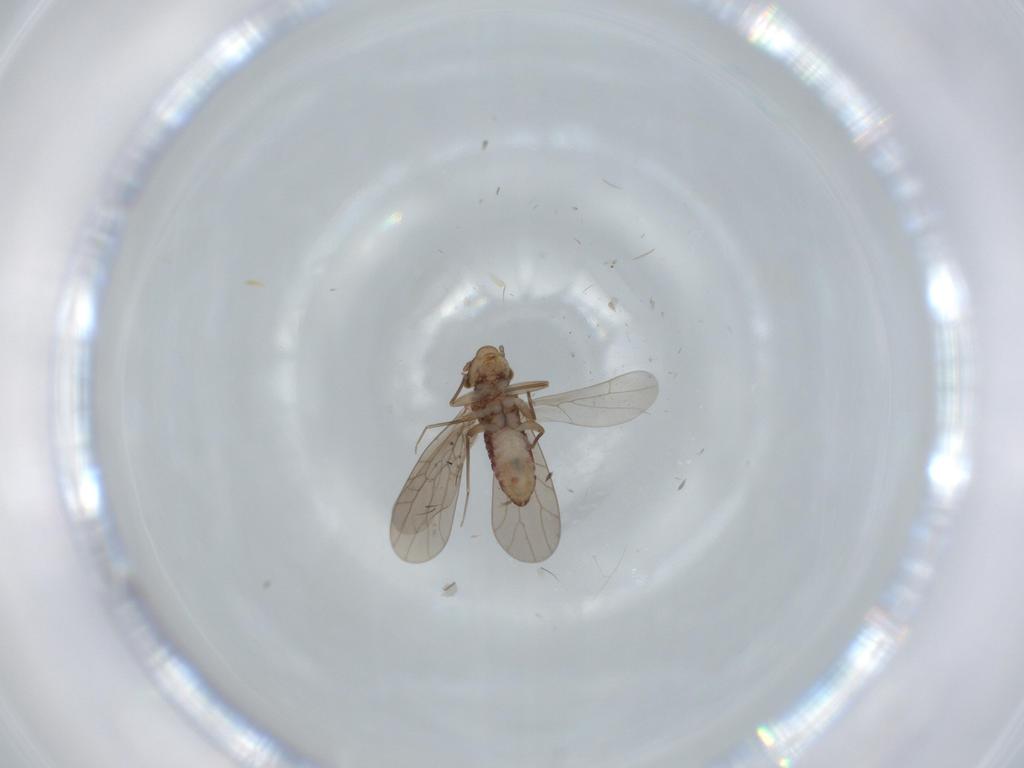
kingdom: Animalia
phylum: Arthropoda
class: Insecta
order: Psocodea
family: Lepidopsocidae
